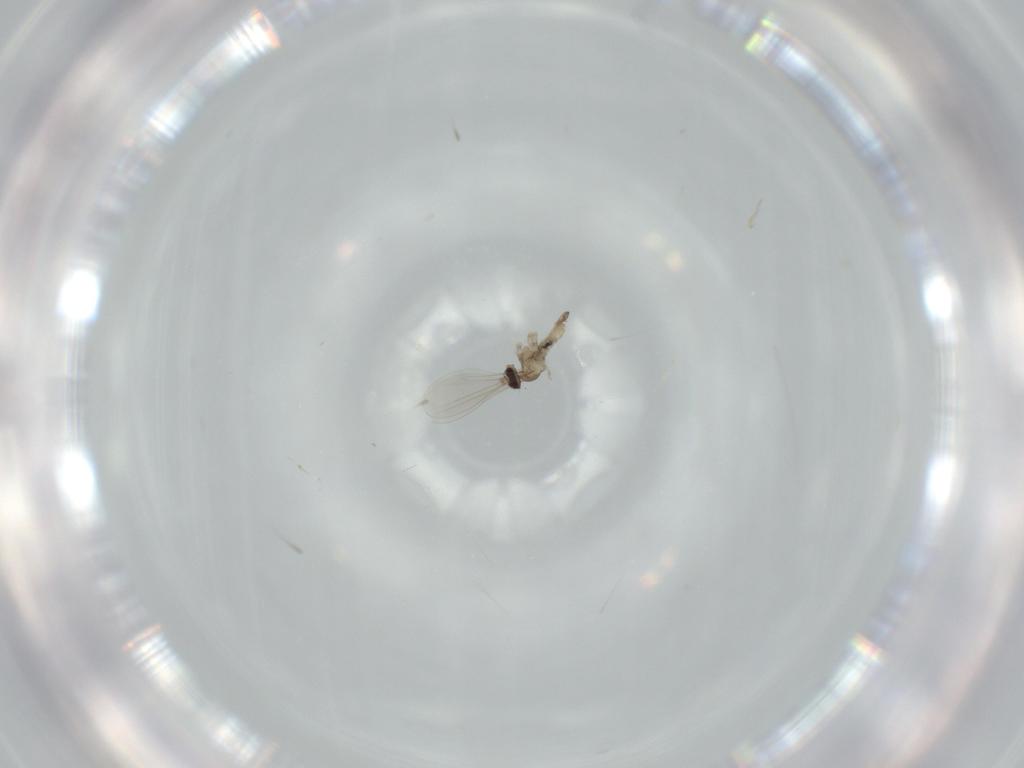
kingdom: Animalia
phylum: Arthropoda
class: Insecta
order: Diptera
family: Cecidomyiidae
